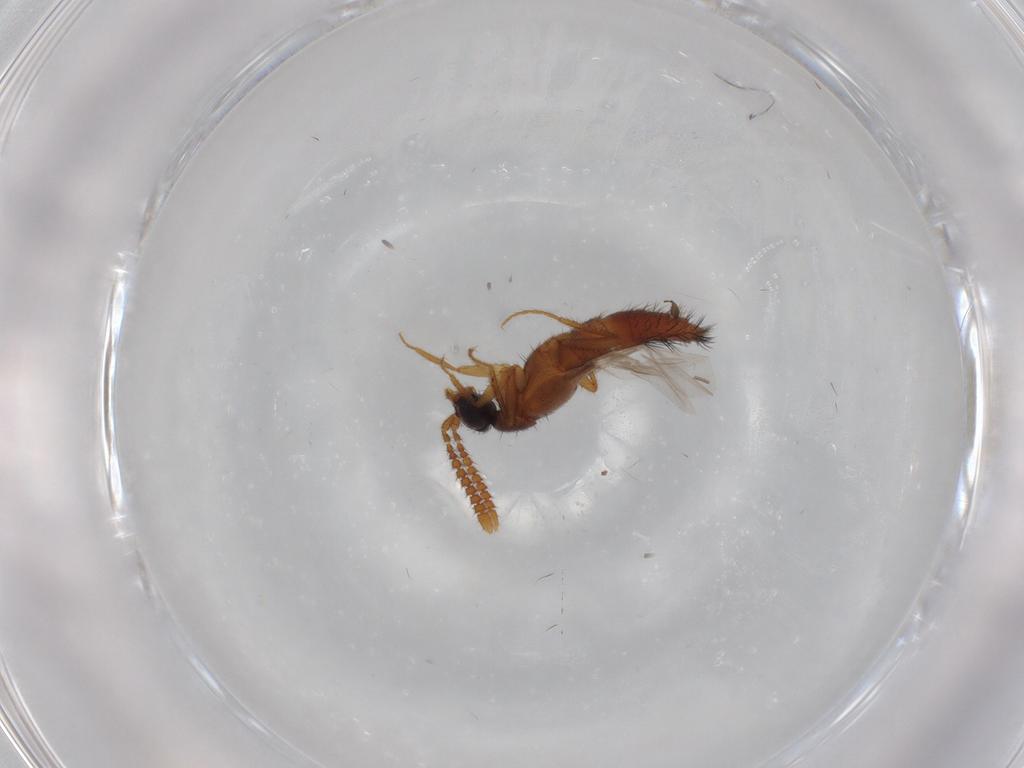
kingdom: Animalia
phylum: Arthropoda
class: Insecta
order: Coleoptera
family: Staphylinidae
